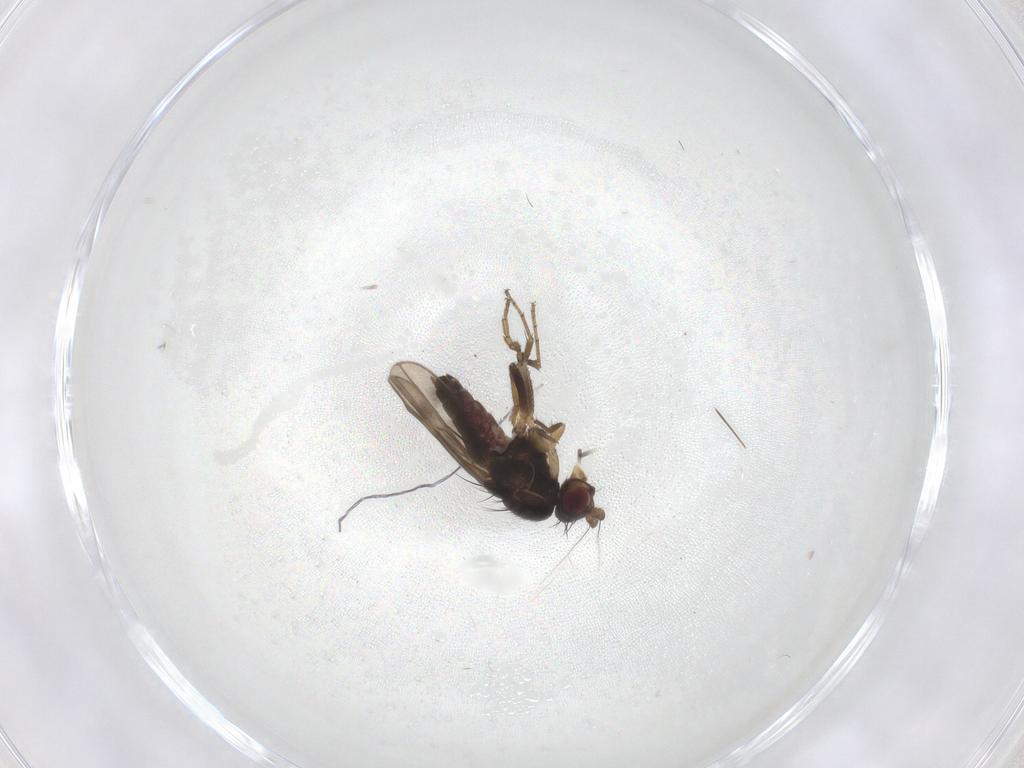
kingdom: Animalia
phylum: Arthropoda
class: Insecta
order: Diptera
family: Sphaeroceridae
